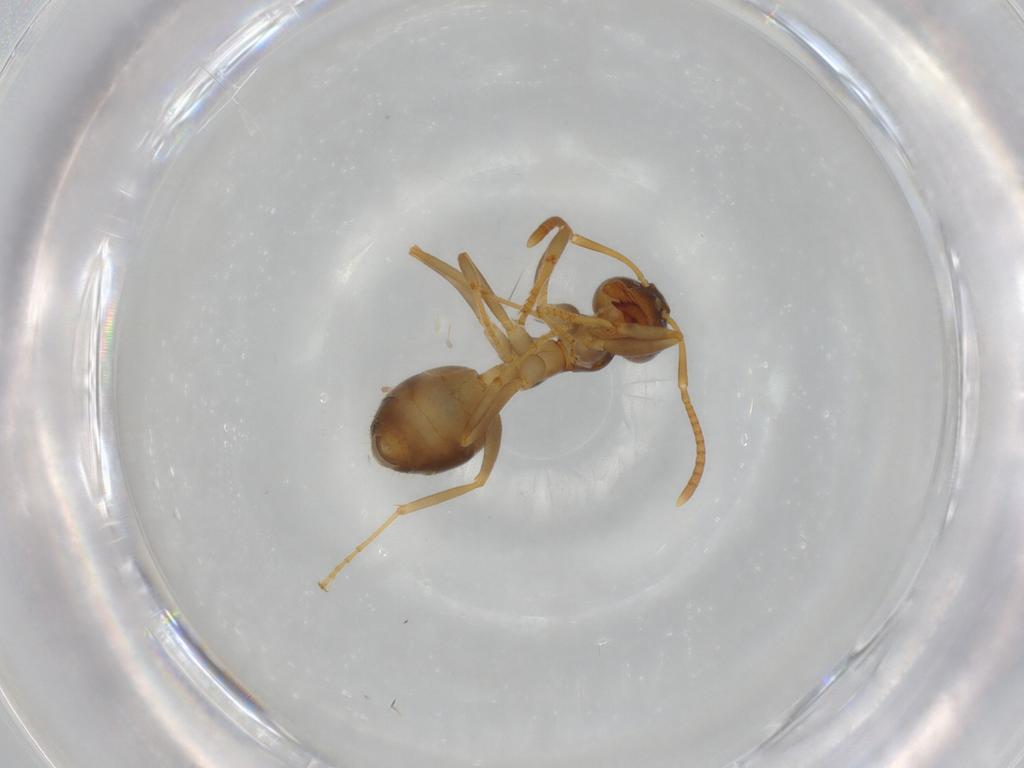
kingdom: Animalia
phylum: Arthropoda
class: Insecta
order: Hymenoptera
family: Formicidae
